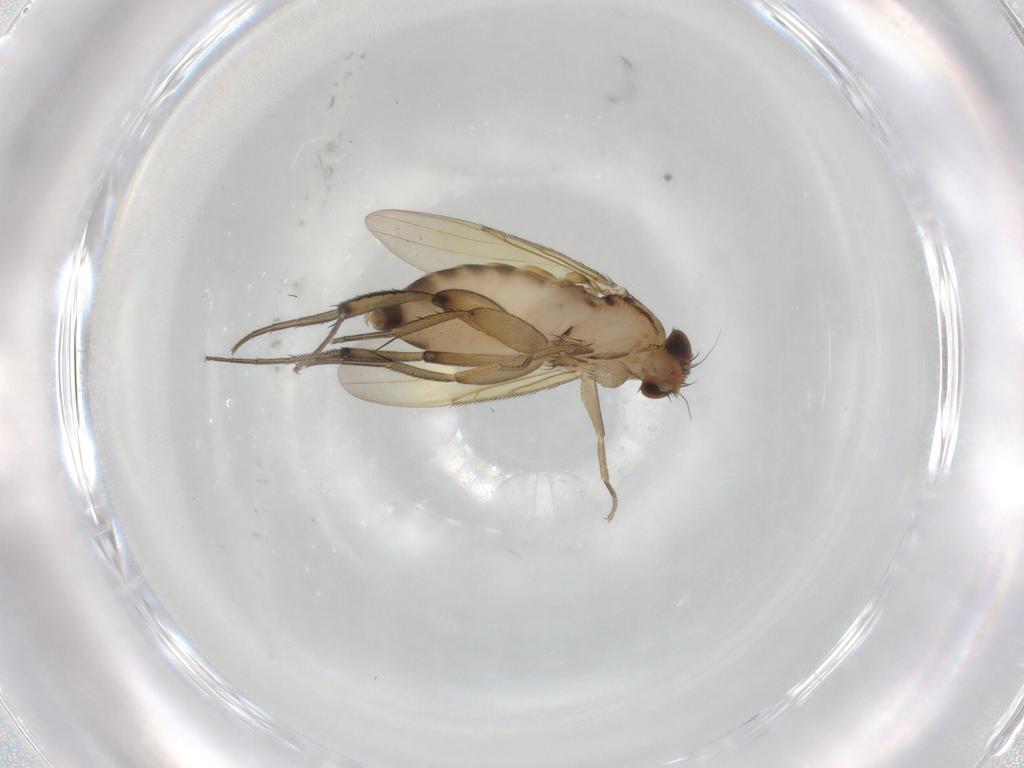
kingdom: Animalia
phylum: Arthropoda
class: Insecta
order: Diptera
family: Phoridae
